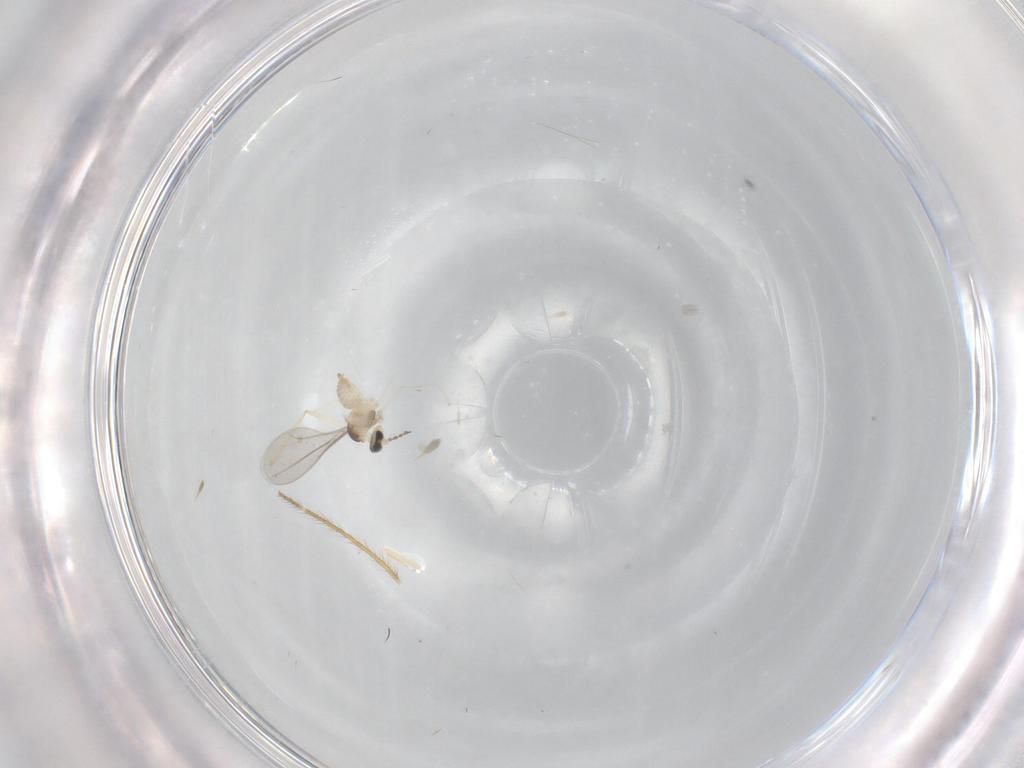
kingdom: Animalia
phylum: Arthropoda
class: Insecta
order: Diptera
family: Cecidomyiidae
